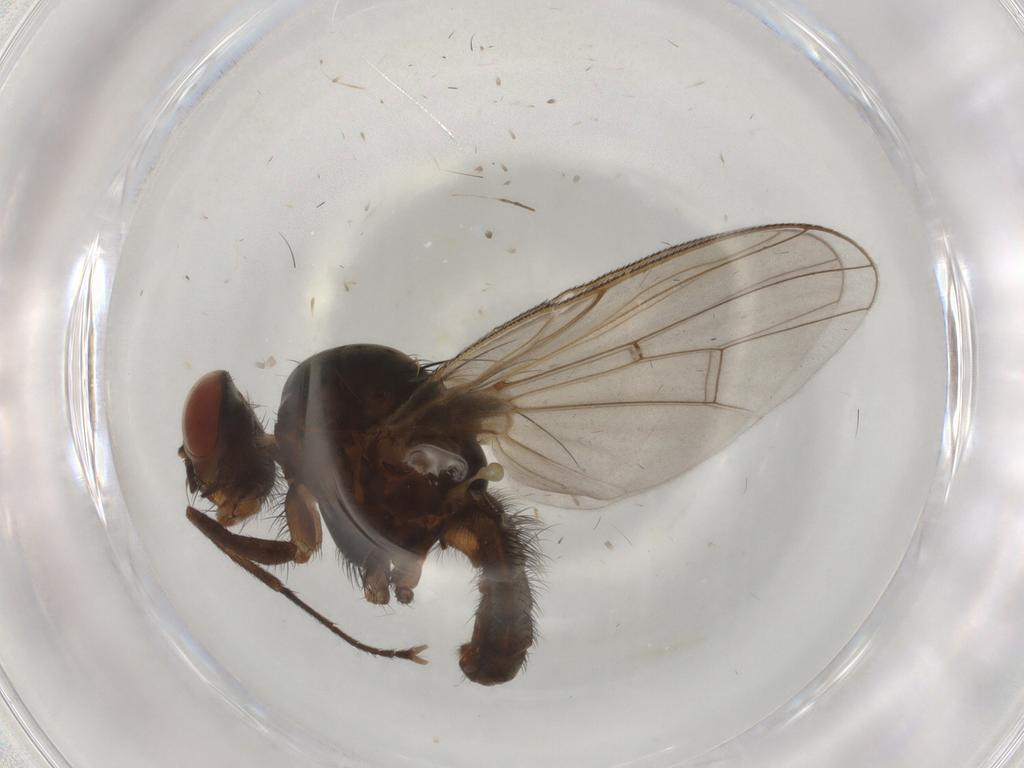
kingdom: Animalia
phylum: Arthropoda
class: Insecta
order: Diptera
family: Anthomyiidae
